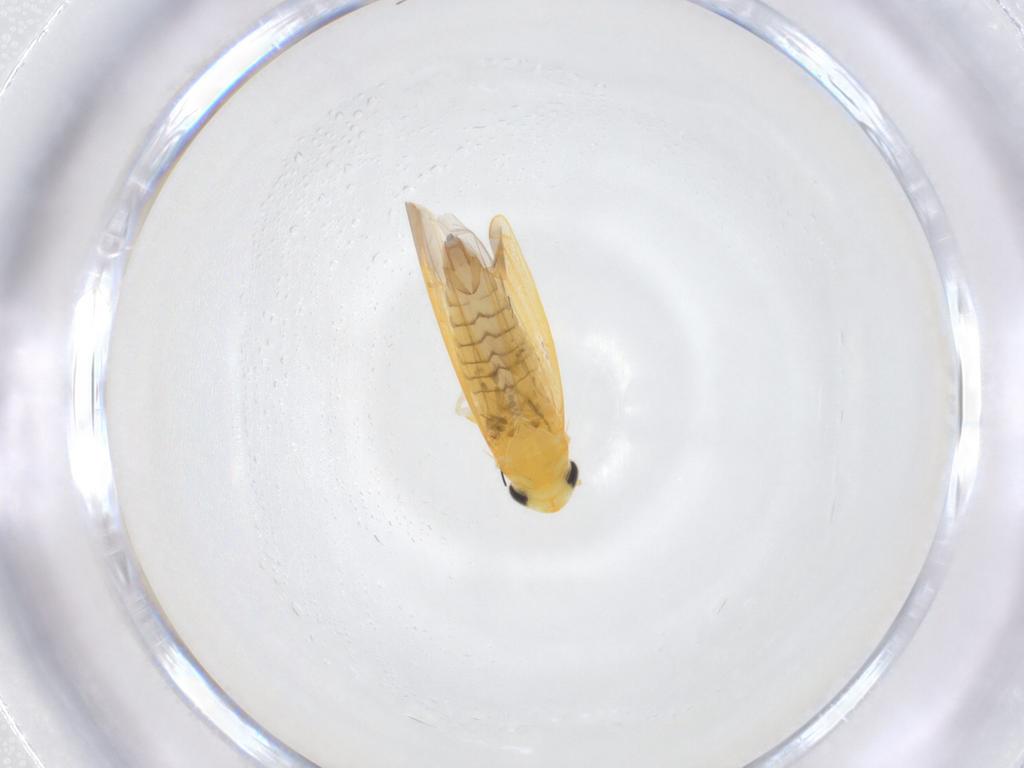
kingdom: Animalia
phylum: Arthropoda
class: Insecta
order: Hemiptera
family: Cicadellidae
